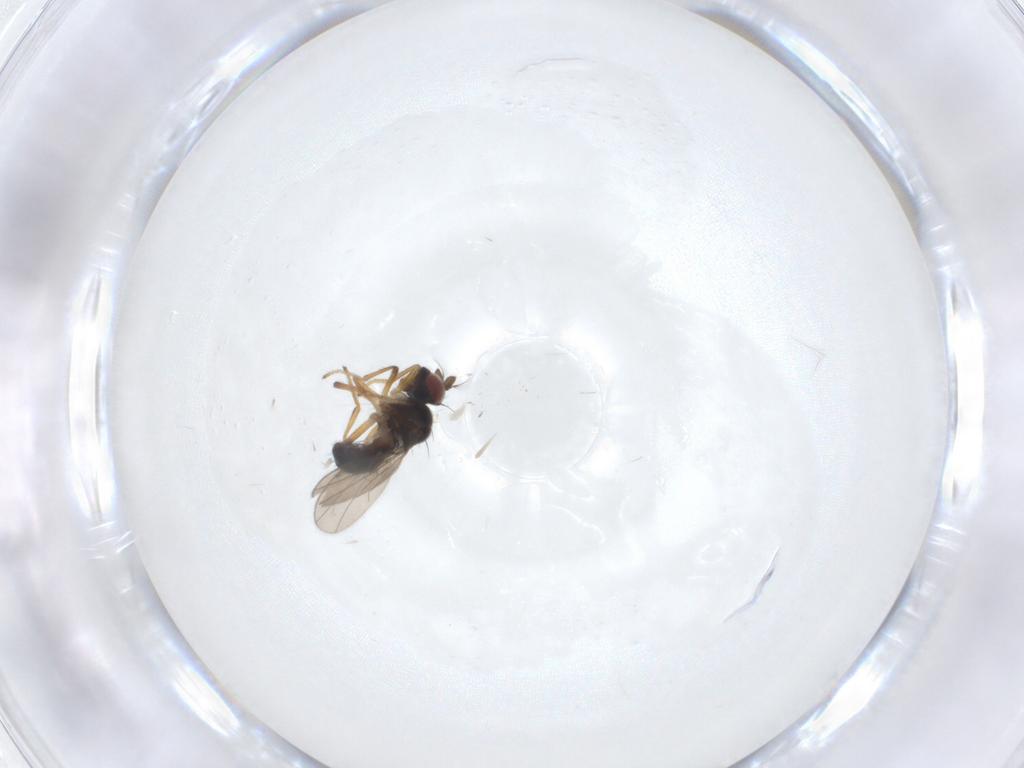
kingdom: Animalia
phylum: Arthropoda
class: Insecta
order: Diptera
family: Ephydridae
